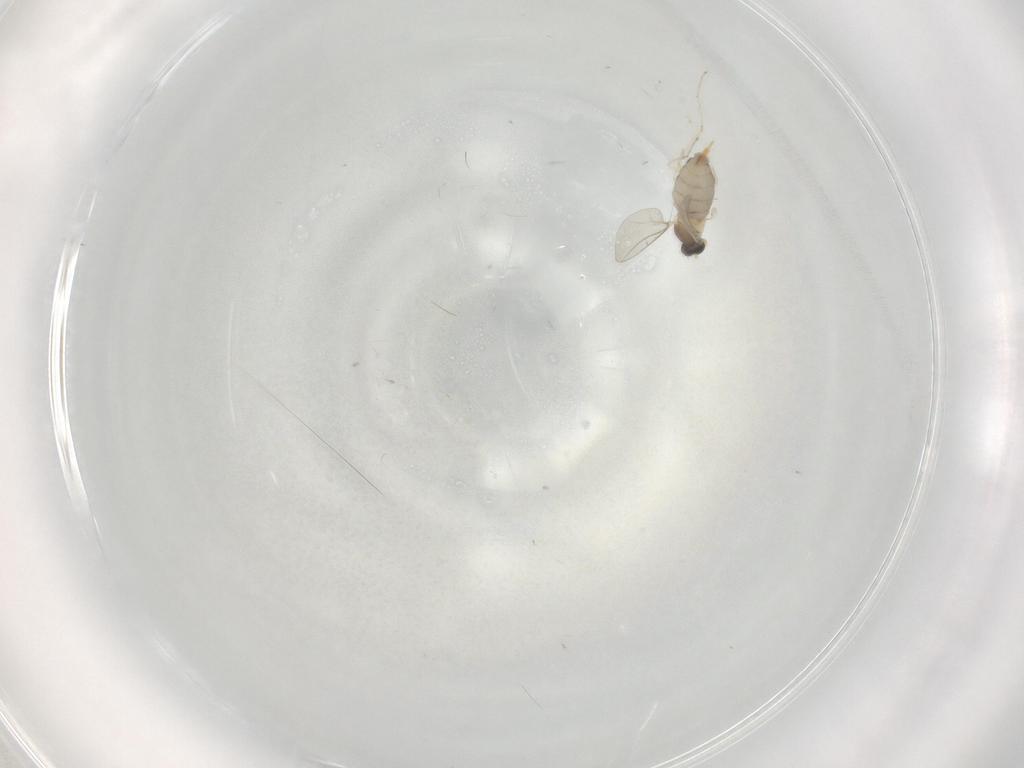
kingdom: Animalia
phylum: Arthropoda
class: Insecta
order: Diptera
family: Cecidomyiidae
